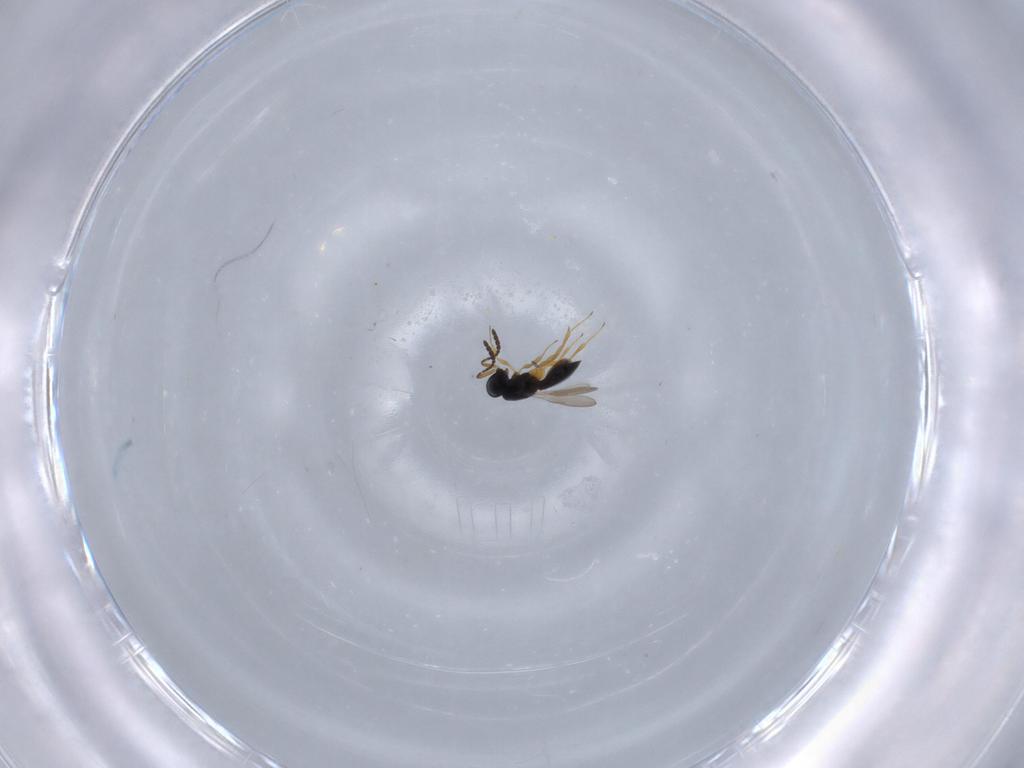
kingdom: Animalia
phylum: Arthropoda
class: Insecta
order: Hymenoptera
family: Scelionidae
